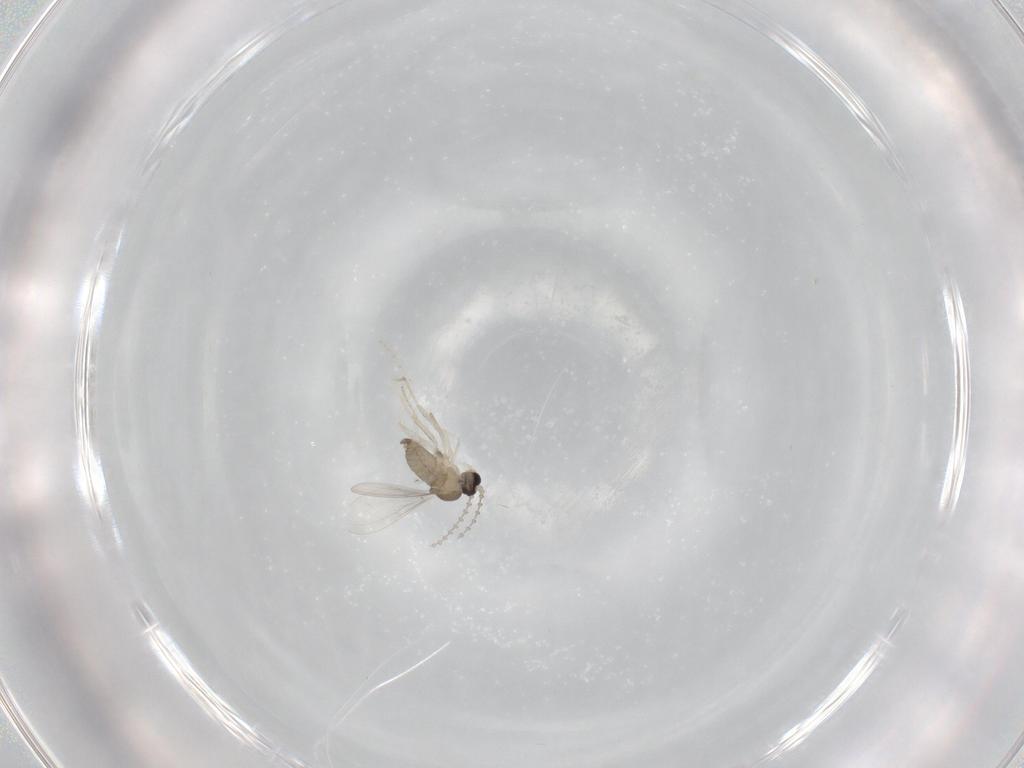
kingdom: Animalia
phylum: Arthropoda
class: Insecta
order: Diptera
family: Cecidomyiidae
